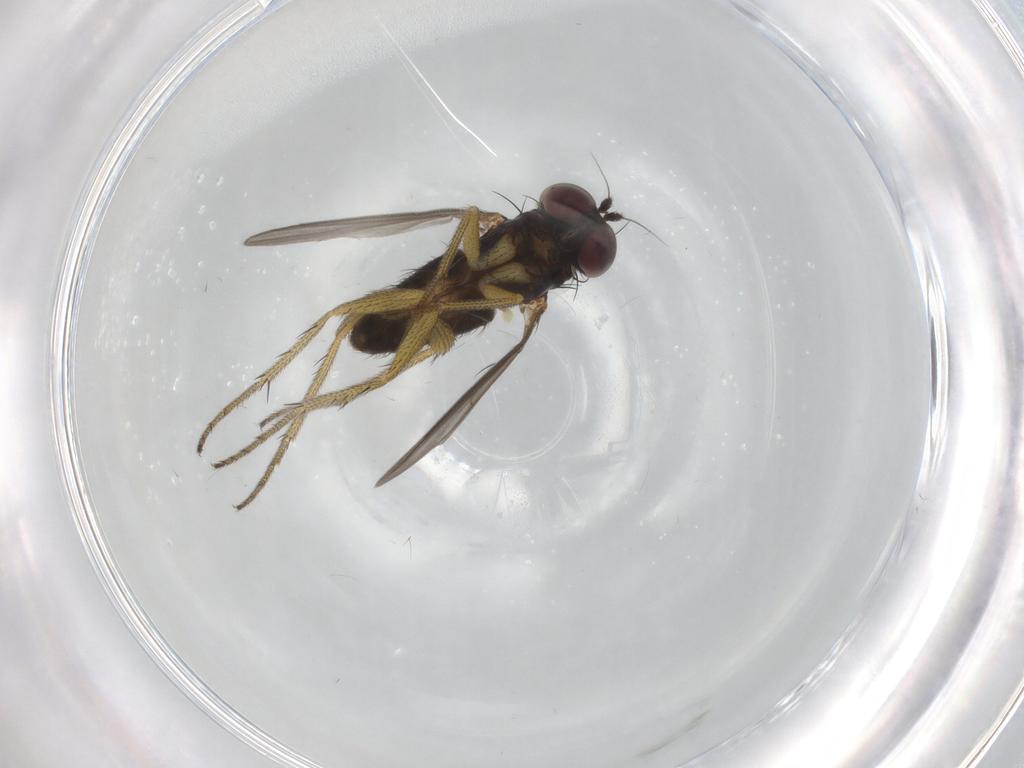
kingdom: Animalia
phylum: Arthropoda
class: Insecta
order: Diptera
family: Dolichopodidae
